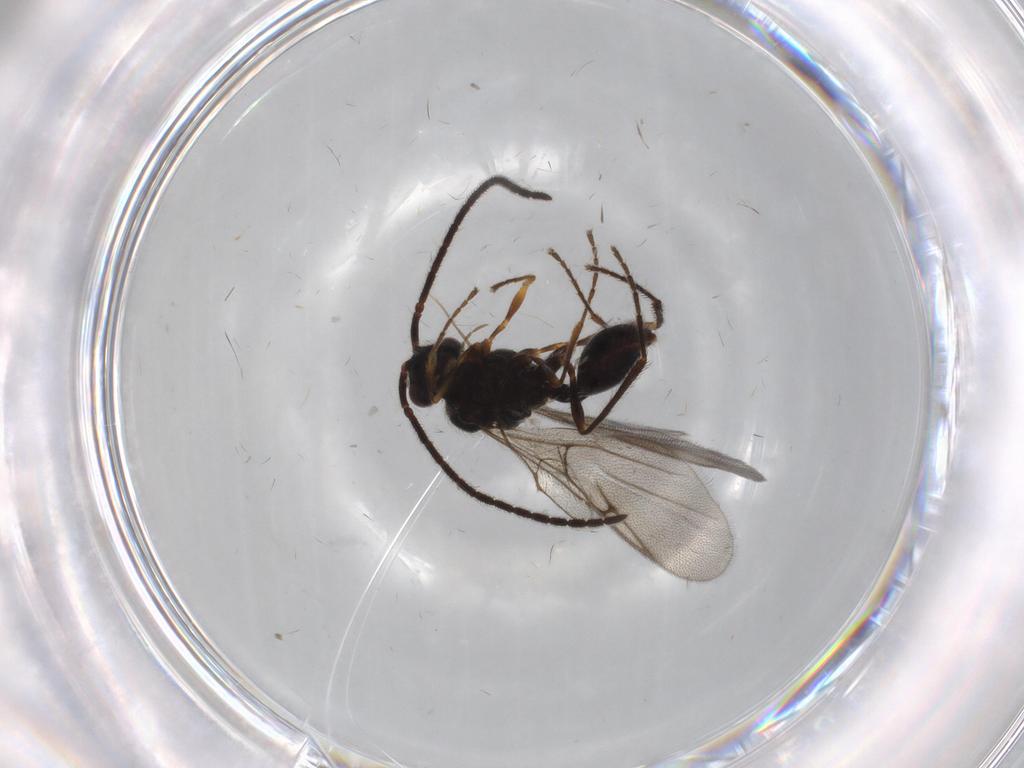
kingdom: Animalia
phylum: Arthropoda
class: Insecta
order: Hymenoptera
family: Diapriidae
